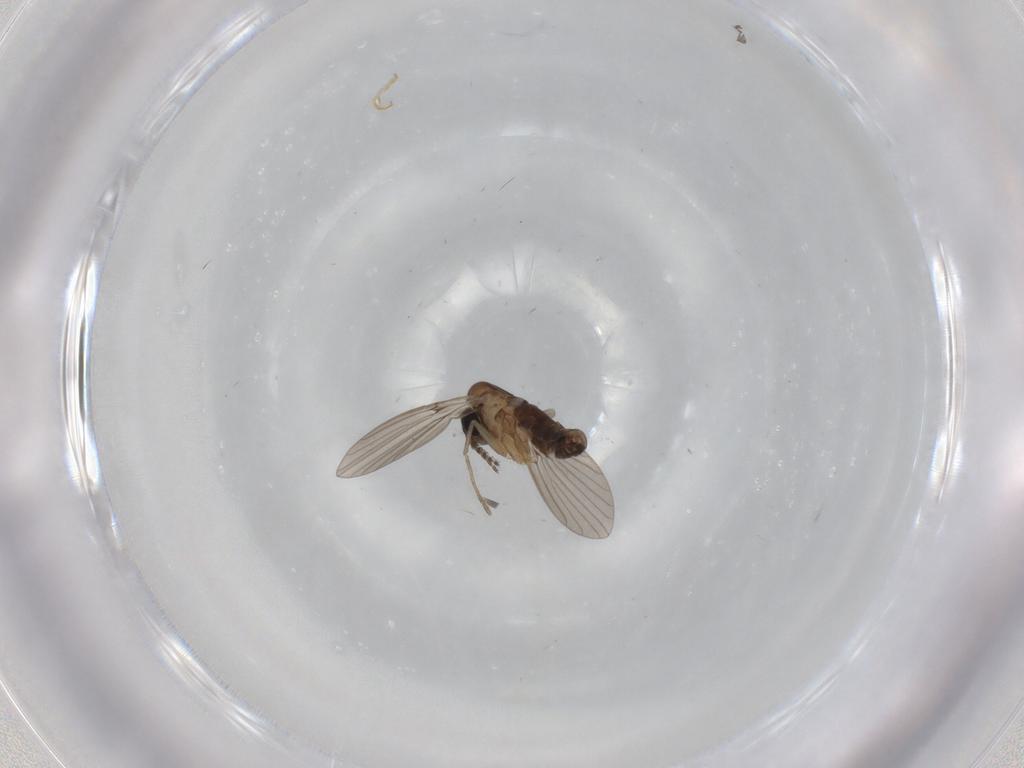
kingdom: Animalia
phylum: Arthropoda
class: Insecta
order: Diptera
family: Psychodidae
